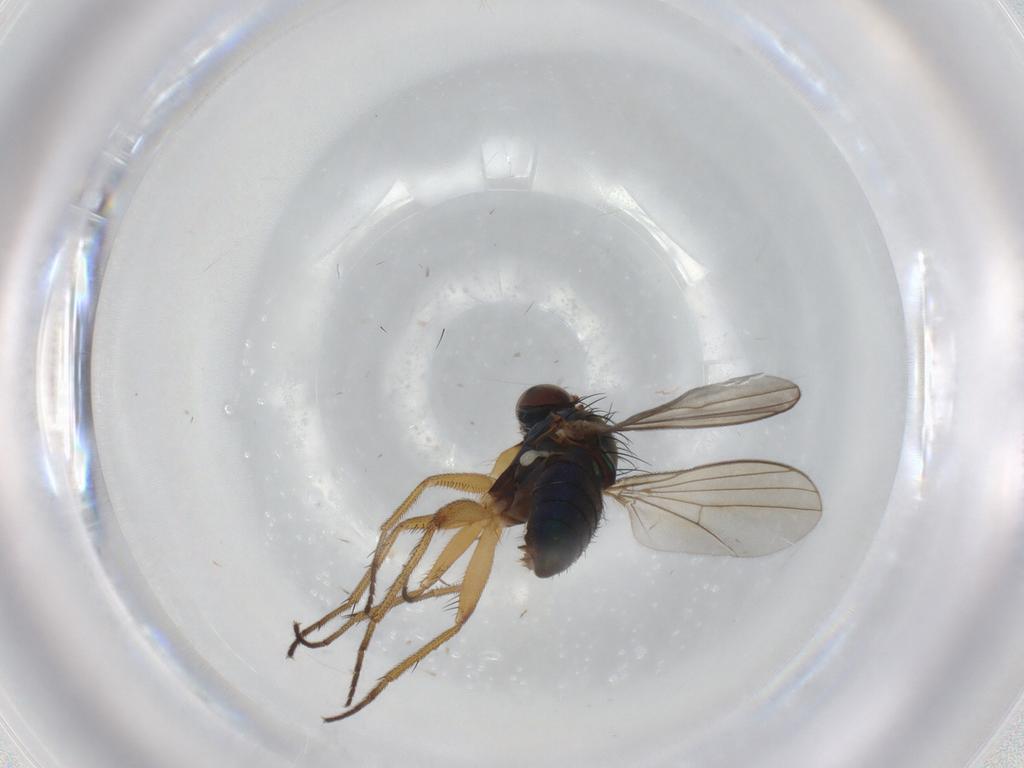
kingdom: Animalia
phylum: Arthropoda
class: Insecta
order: Diptera
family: Dolichopodidae
